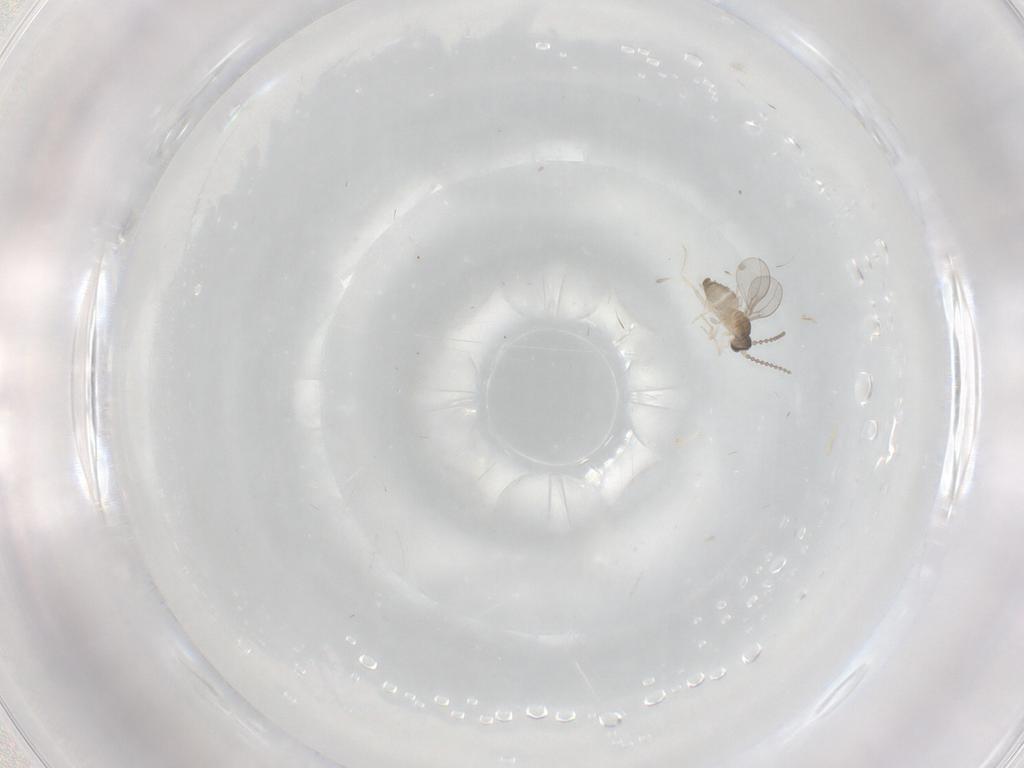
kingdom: Animalia
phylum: Arthropoda
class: Insecta
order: Diptera
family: Cecidomyiidae
